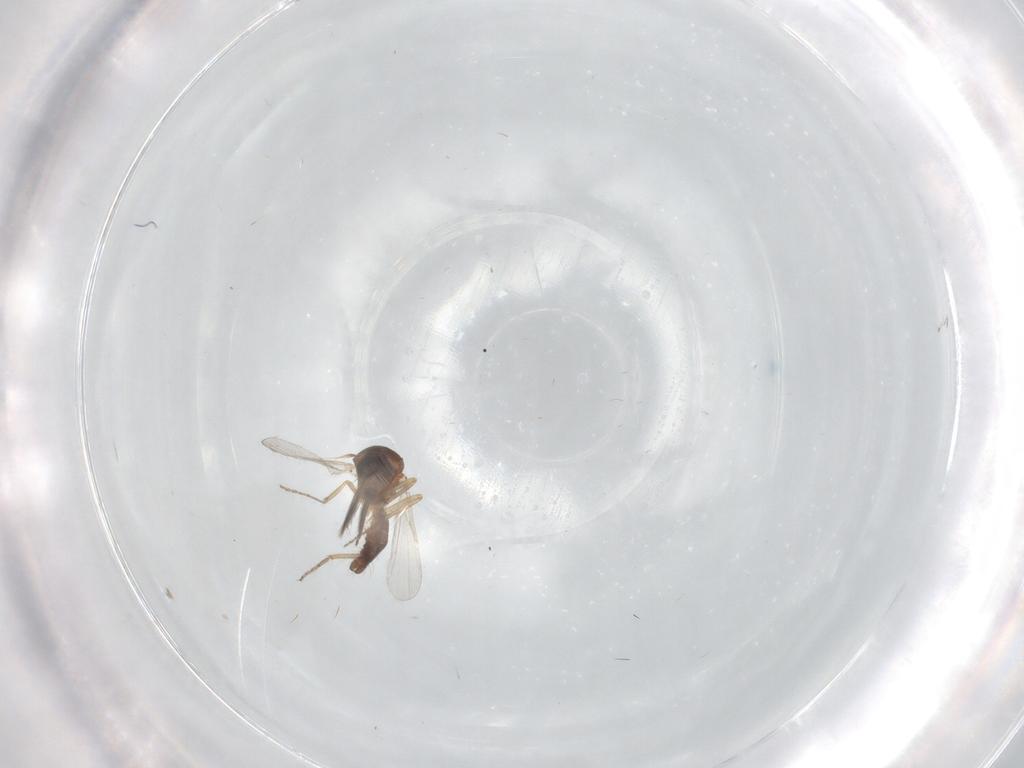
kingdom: Animalia
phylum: Arthropoda
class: Insecta
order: Diptera
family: Ceratopogonidae
